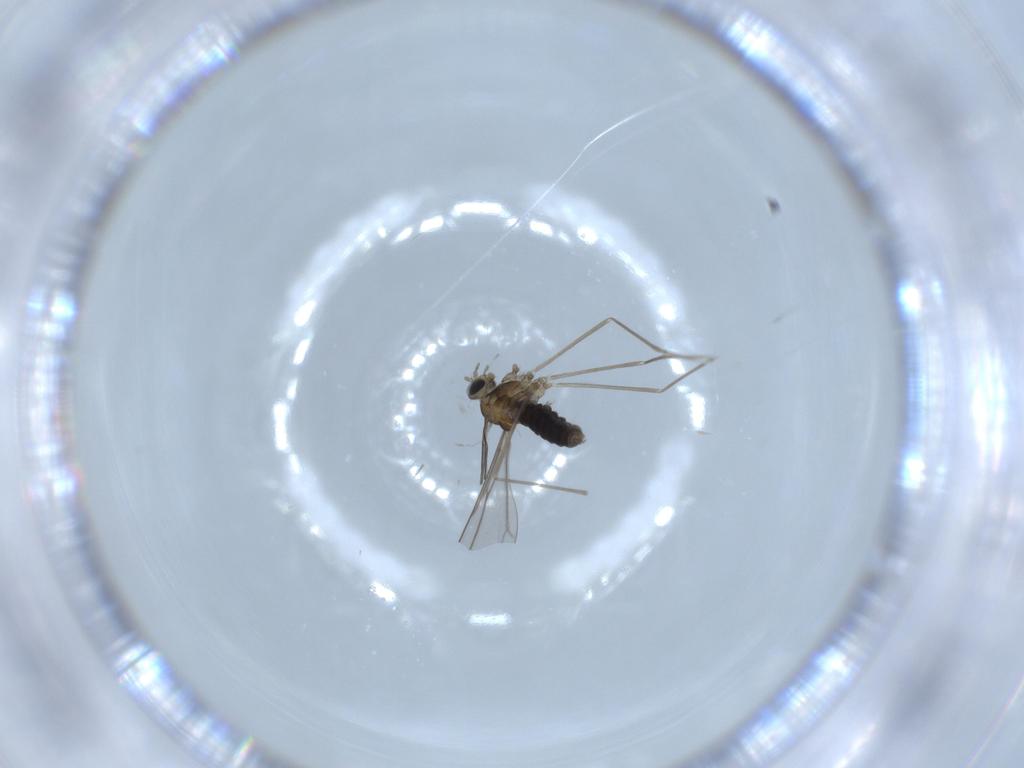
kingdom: Animalia
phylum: Arthropoda
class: Insecta
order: Diptera
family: Cecidomyiidae
